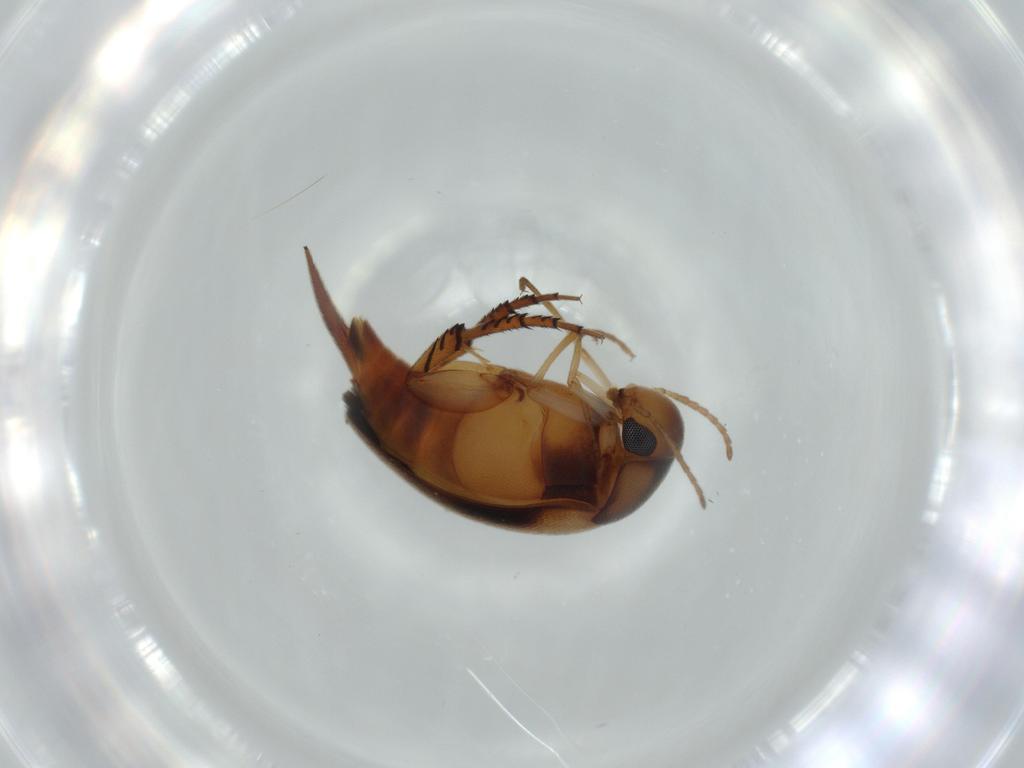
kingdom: Animalia
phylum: Arthropoda
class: Insecta
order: Coleoptera
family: Mordellidae
